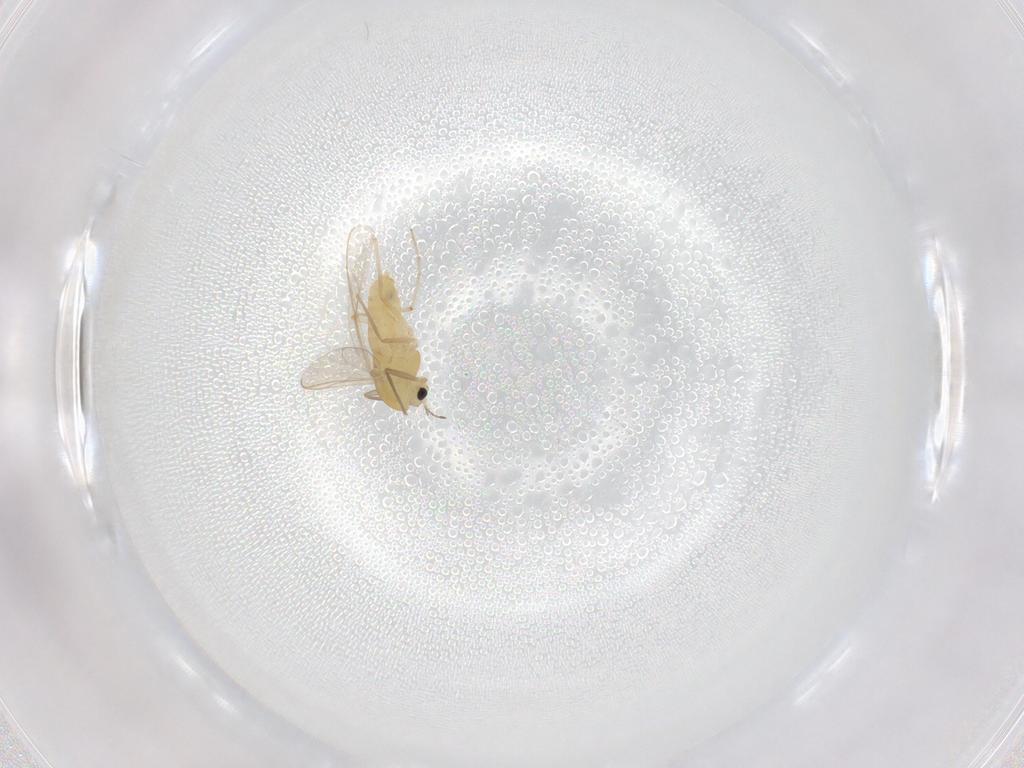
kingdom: Animalia
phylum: Arthropoda
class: Insecta
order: Diptera
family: Chironomidae
